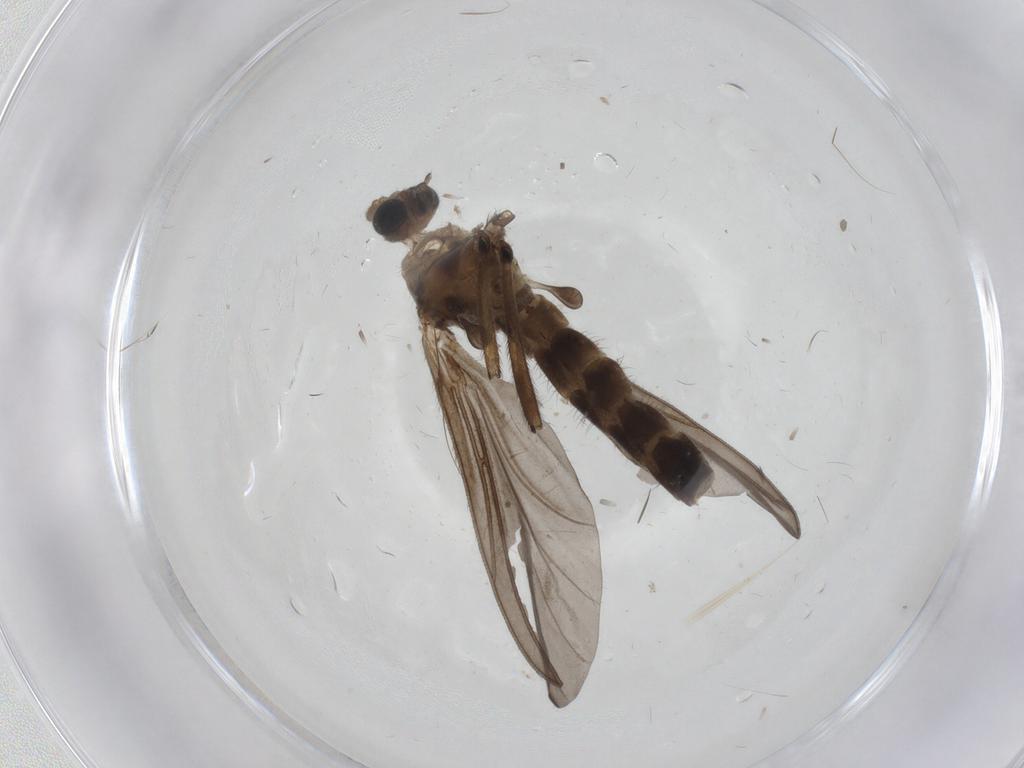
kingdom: Animalia
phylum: Arthropoda
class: Insecta
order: Diptera
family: Chironomidae
